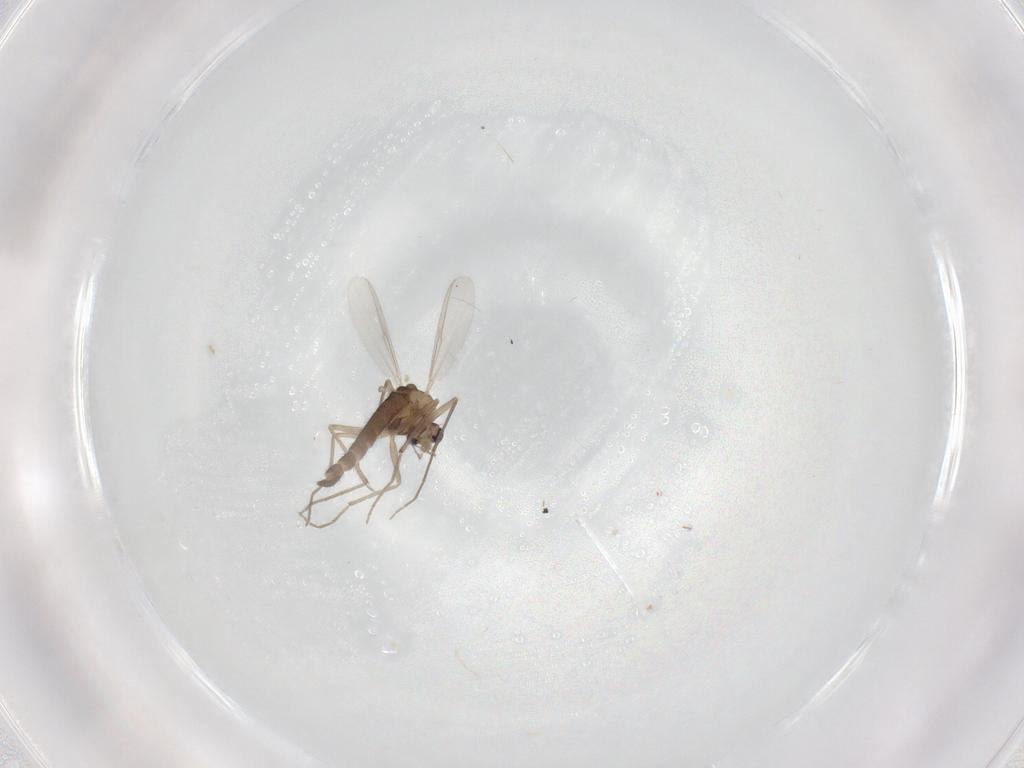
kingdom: Animalia
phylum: Arthropoda
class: Insecta
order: Diptera
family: Chironomidae
